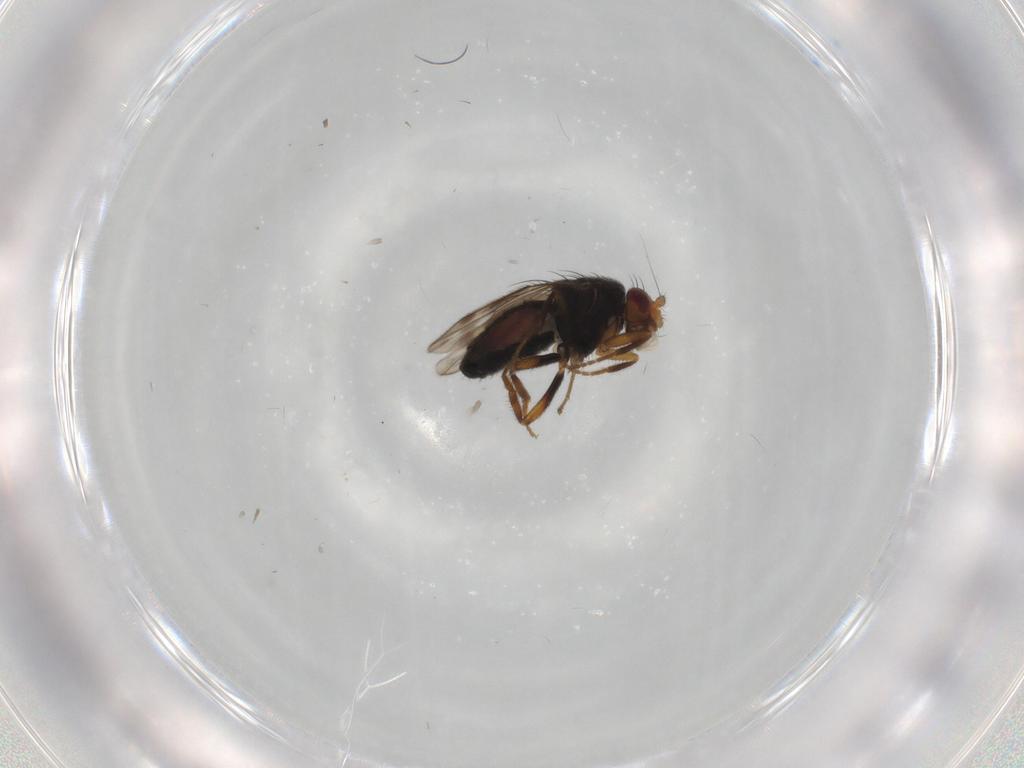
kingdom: Animalia
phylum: Arthropoda
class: Insecta
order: Diptera
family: Sphaeroceridae
